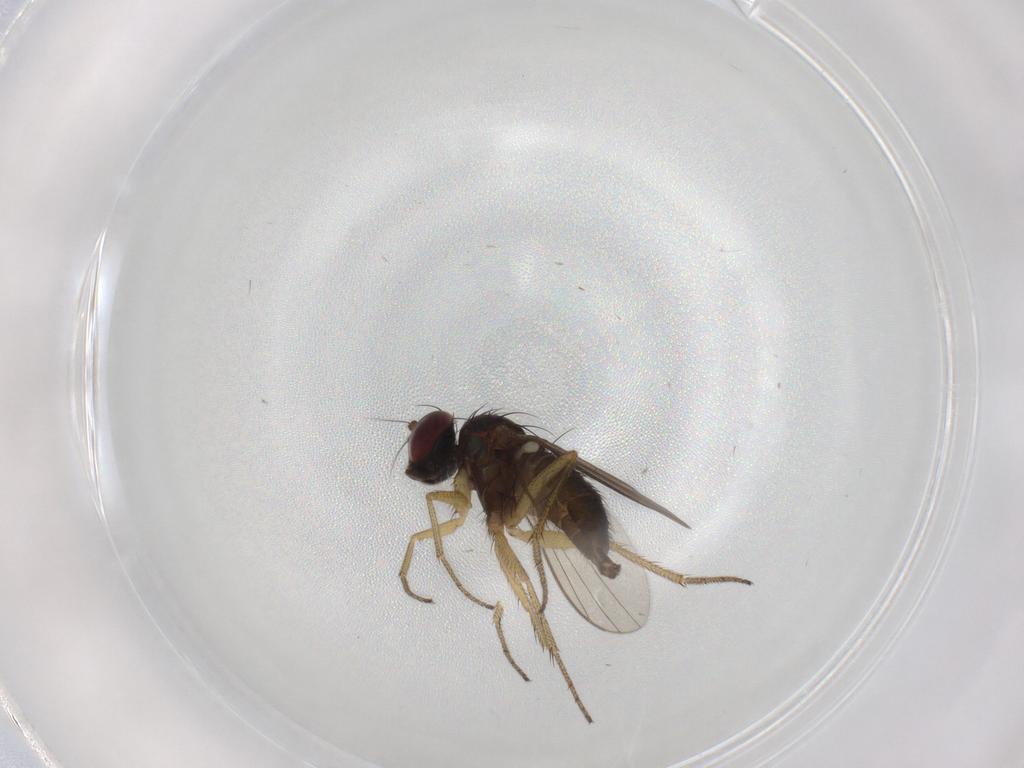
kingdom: Animalia
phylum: Arthropoda
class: Insecta
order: Diptera
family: Dolichopodidae
